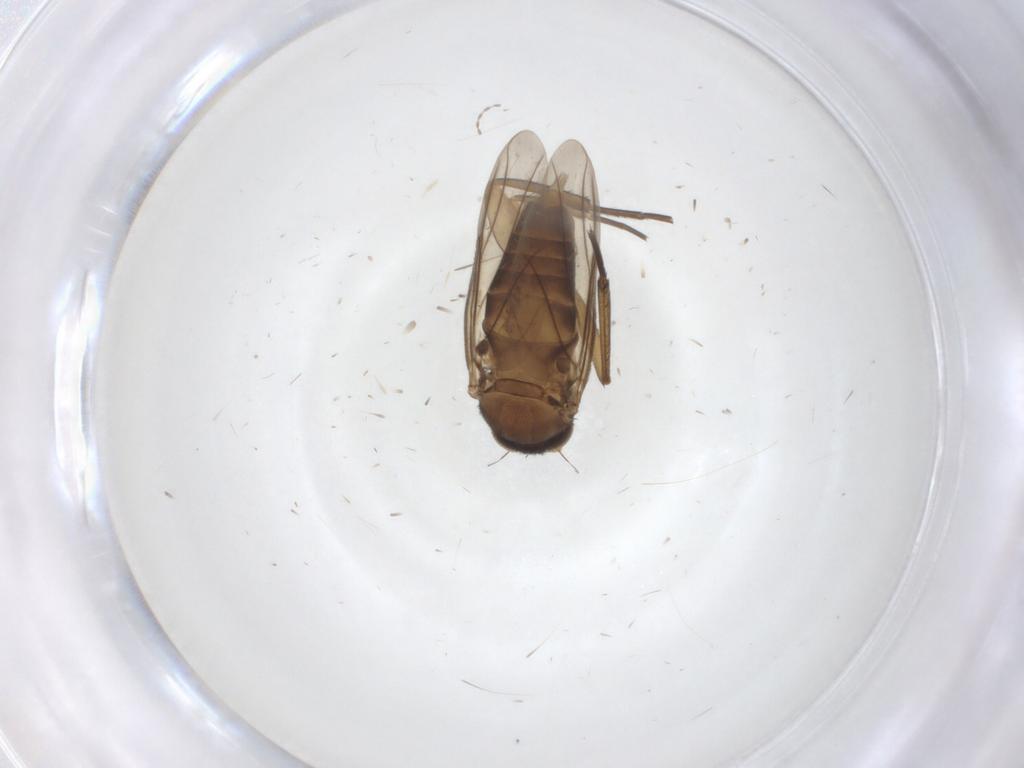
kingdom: Animalia
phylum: Arthropoda
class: Insecta
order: Diptera
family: Phoridae
